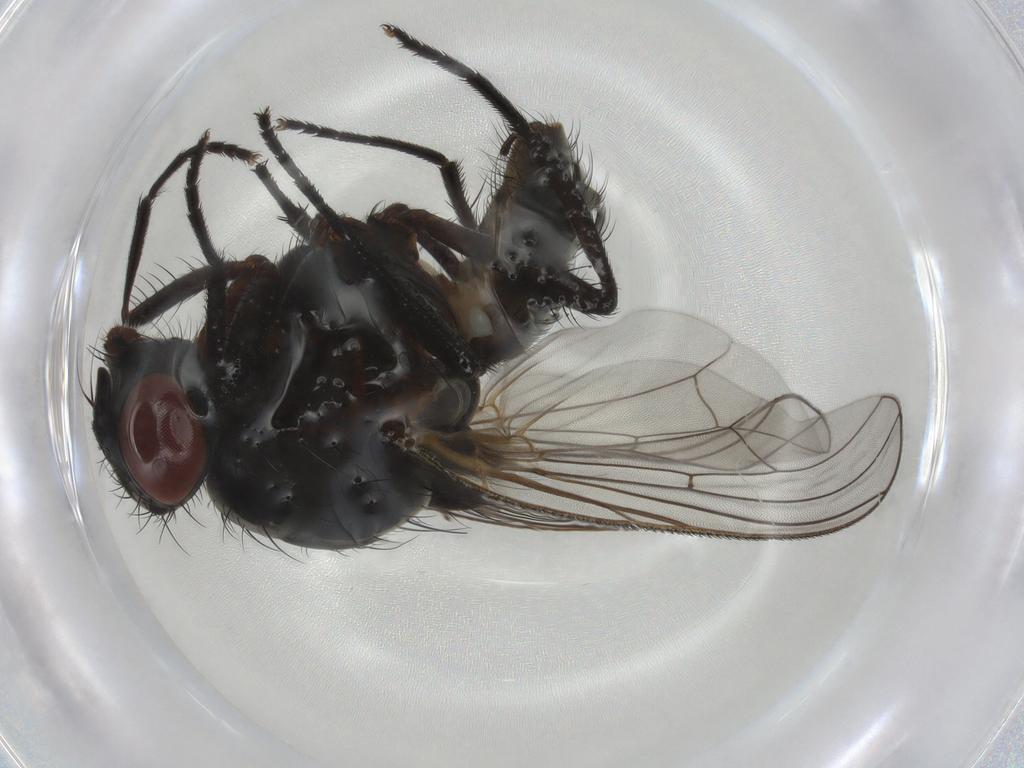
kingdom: Animalia
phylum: Arthropoda
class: Insecta
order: Diptera
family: Anthomyiidae
